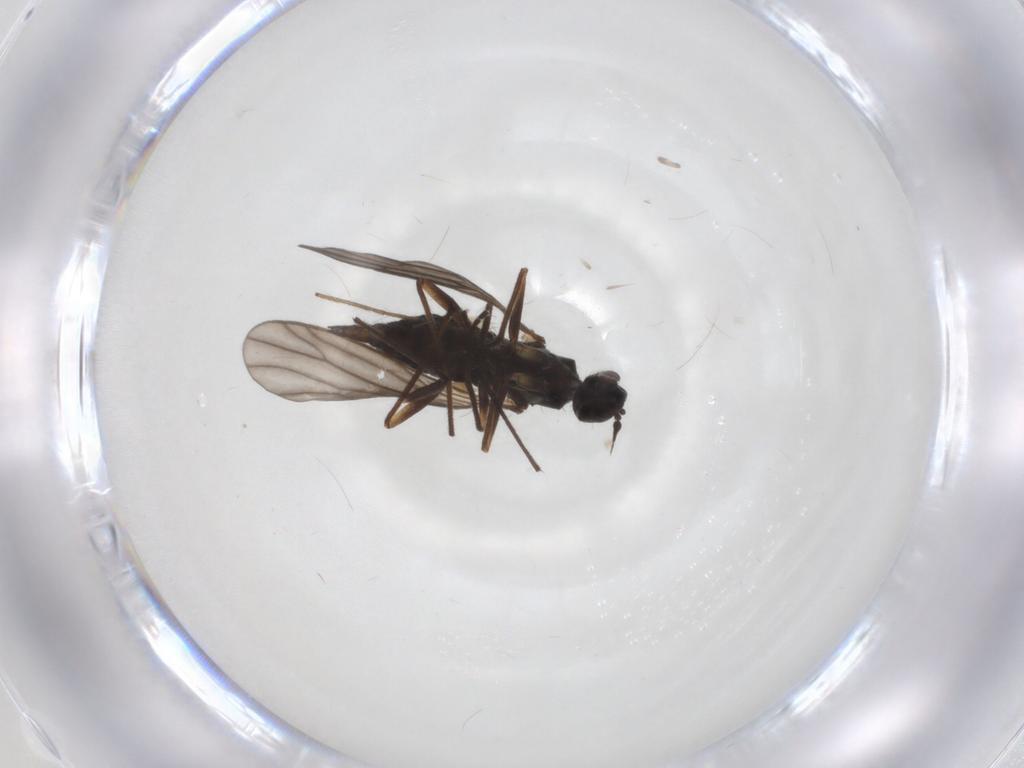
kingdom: Animalia
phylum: Arthropoda
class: Insecta
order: Diptera
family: Chironomidae
